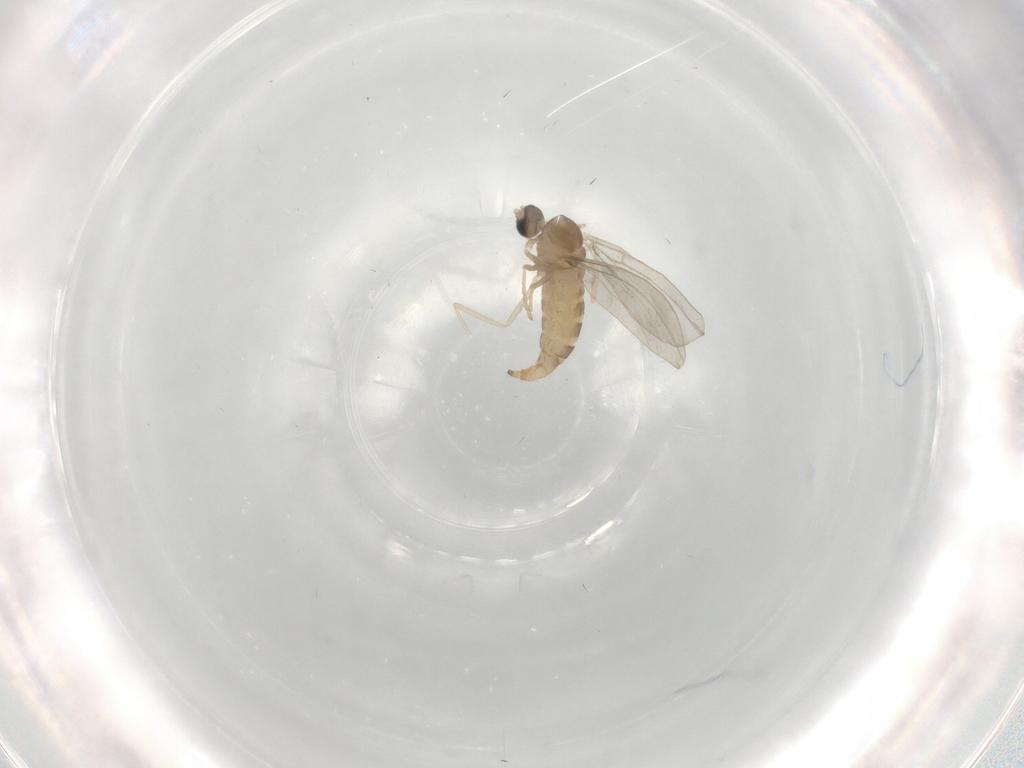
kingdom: Animalia
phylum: Arthropoda
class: Insecta
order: Diptera
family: Cecidomyiidae
